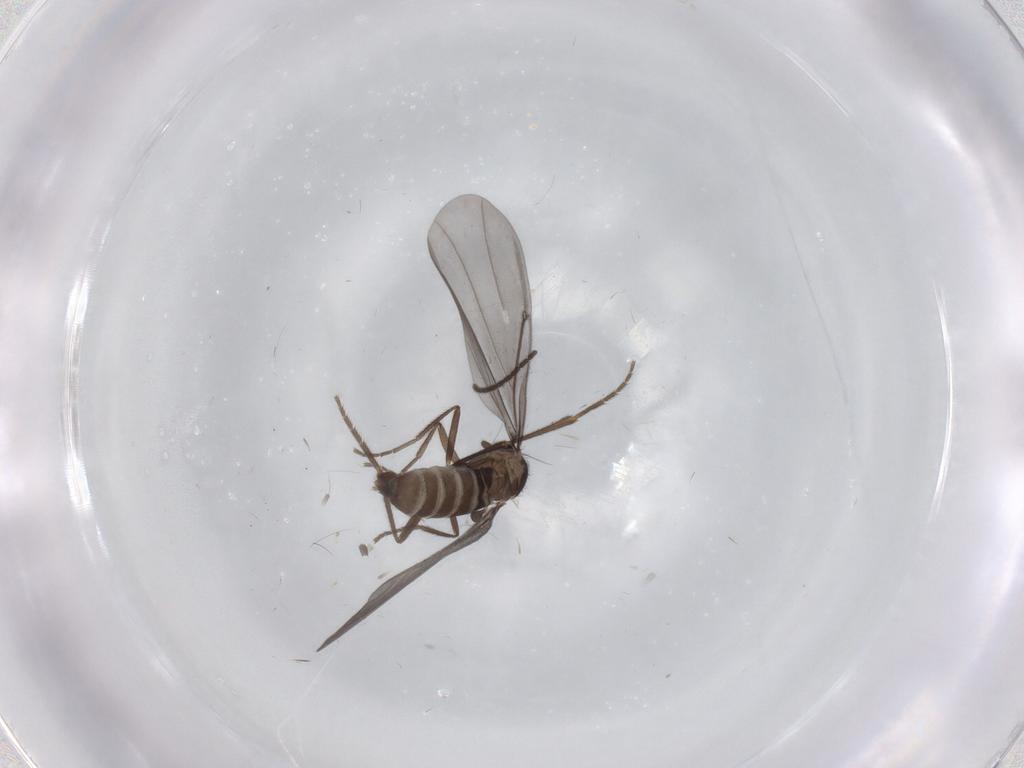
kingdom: Animalia
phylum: Arthropoda
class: Insecta
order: Diptera
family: Phoridae
